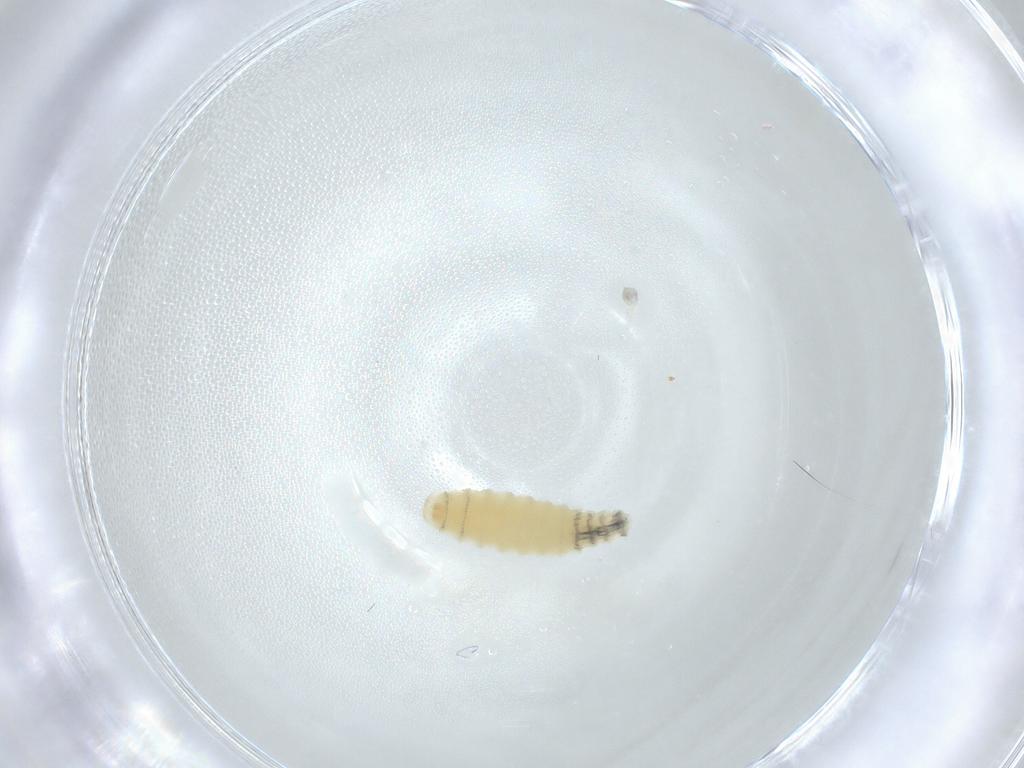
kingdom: Animalia
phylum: Arthropoda
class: Insecta
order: Diptera
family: Sarcophagidae
